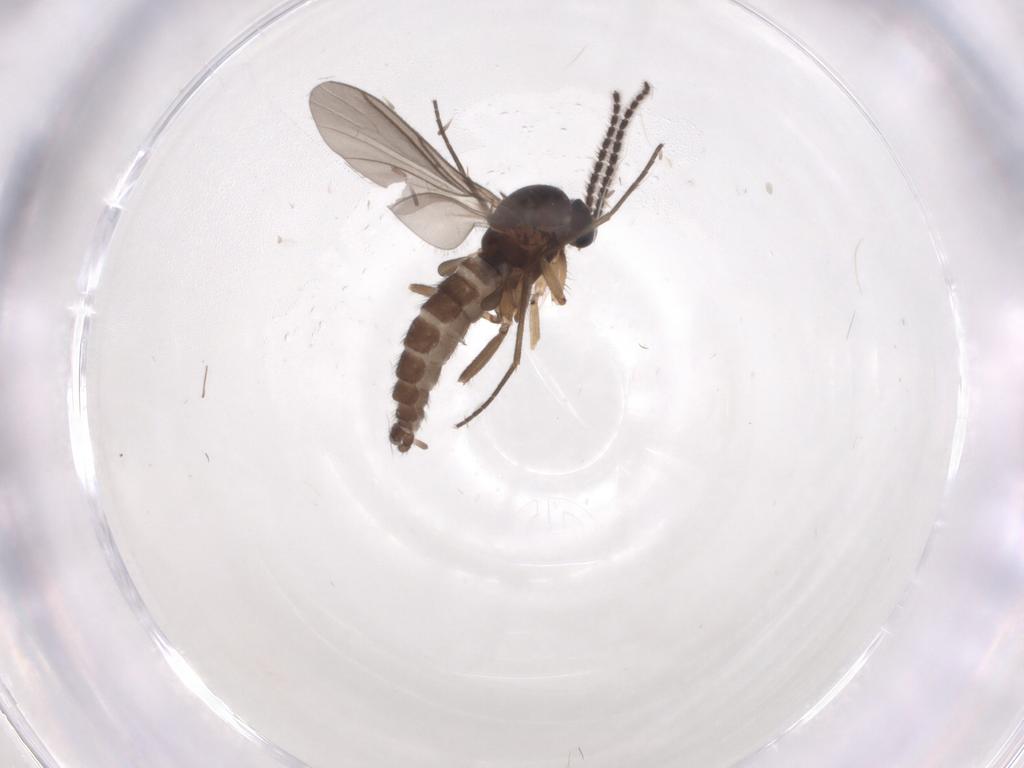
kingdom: Animalia
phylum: Arthropoda
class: Insecta
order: Diptera
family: Sciaridae
